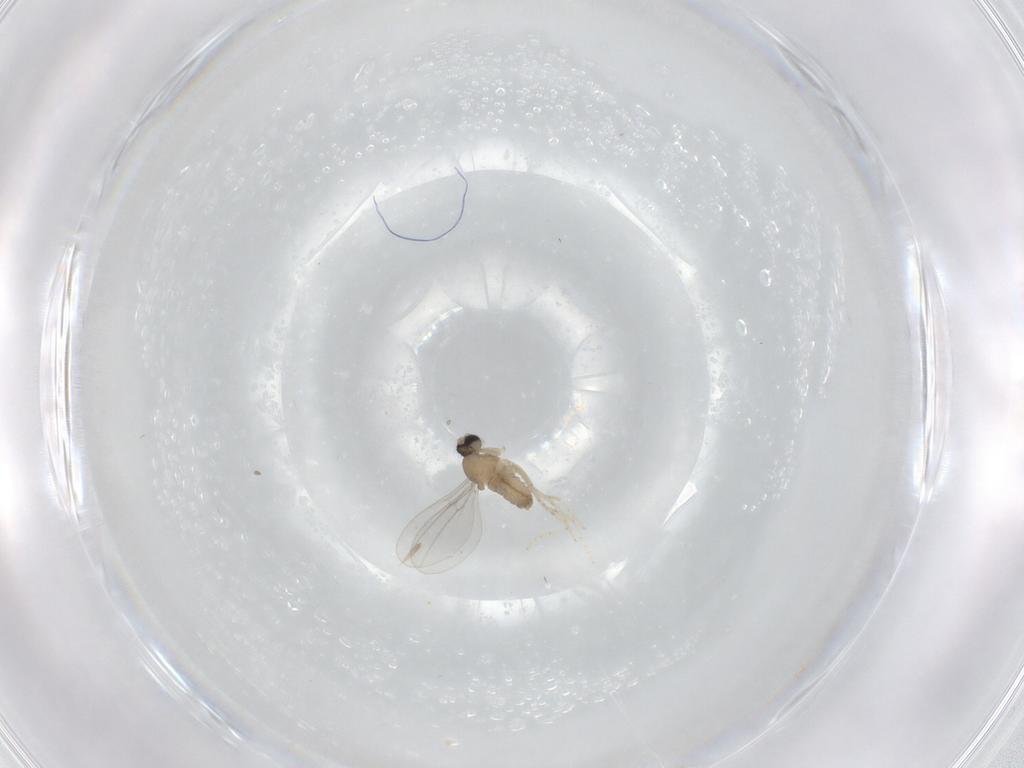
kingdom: Animalia
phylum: Arthropoda
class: Insecta
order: Diptera
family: Cecidomyiidae
